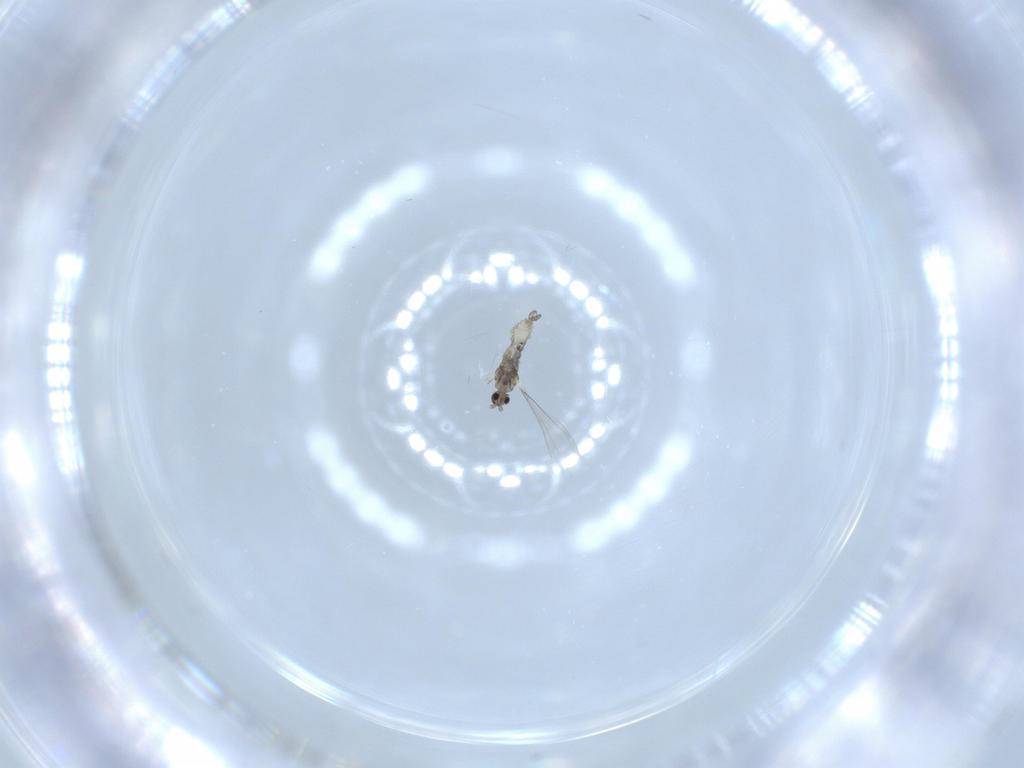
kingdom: Animalia
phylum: Arthropoda
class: Insecta
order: Diptera
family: Cecidomyiidae
